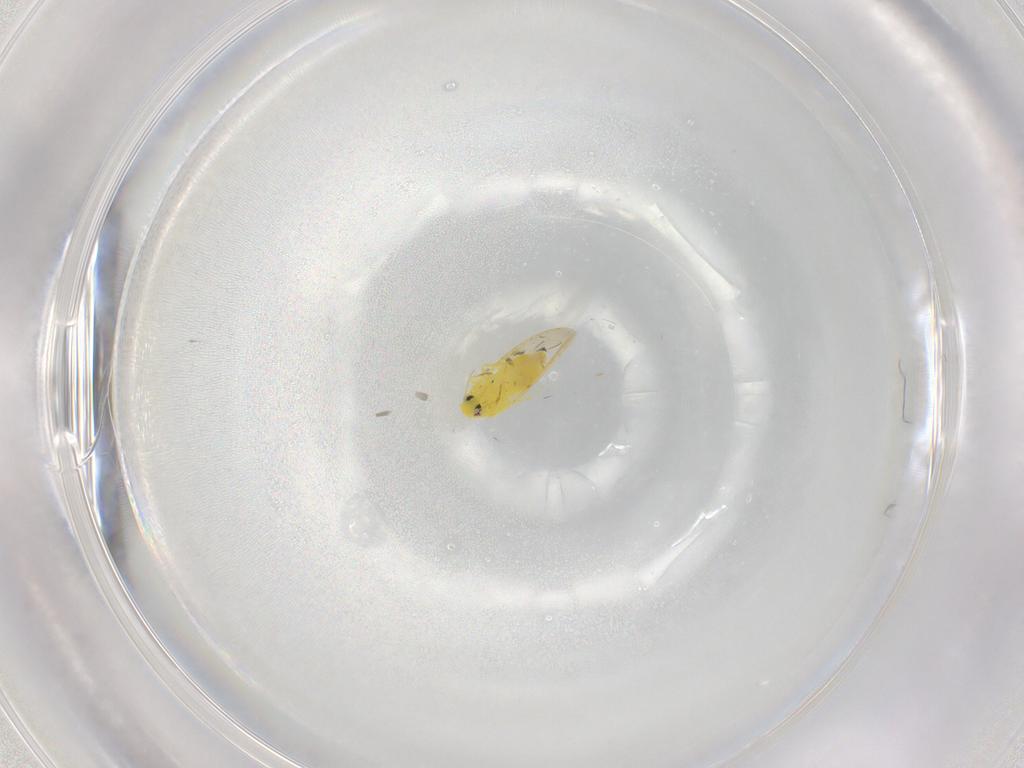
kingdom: Animalia
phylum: Arthropoda
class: Insecta
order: Hemiptera
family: Aleyrodidae
